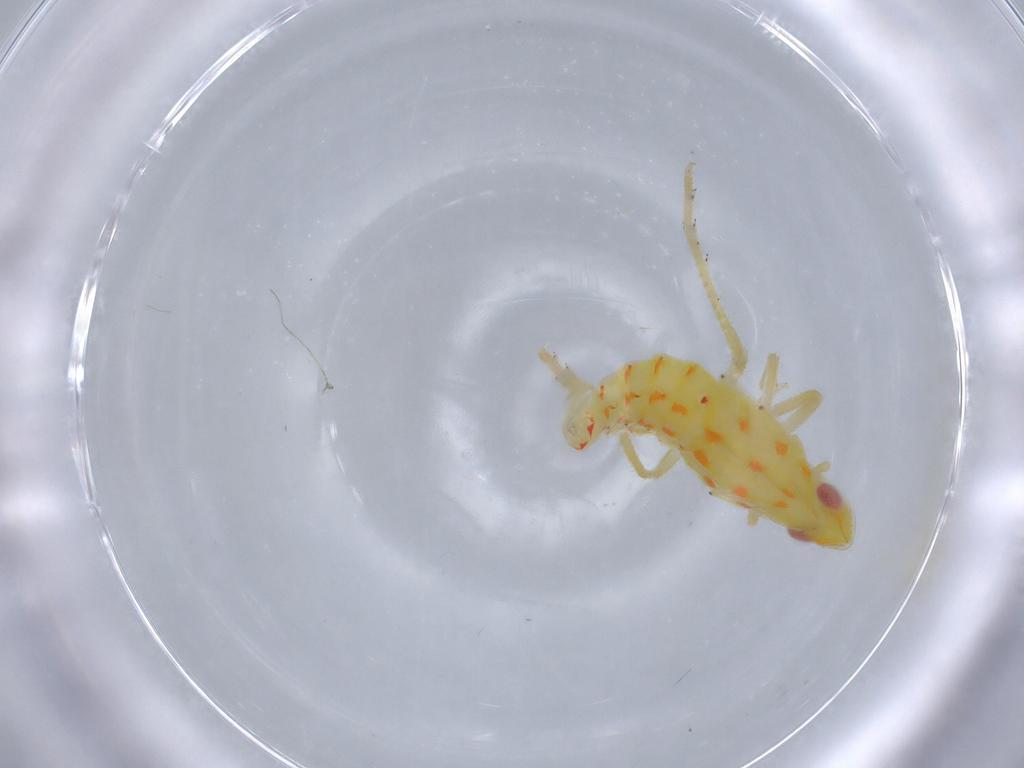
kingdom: Animalia
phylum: Arthropoda
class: Insecta
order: Hemiptera
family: Tropiduchidae
